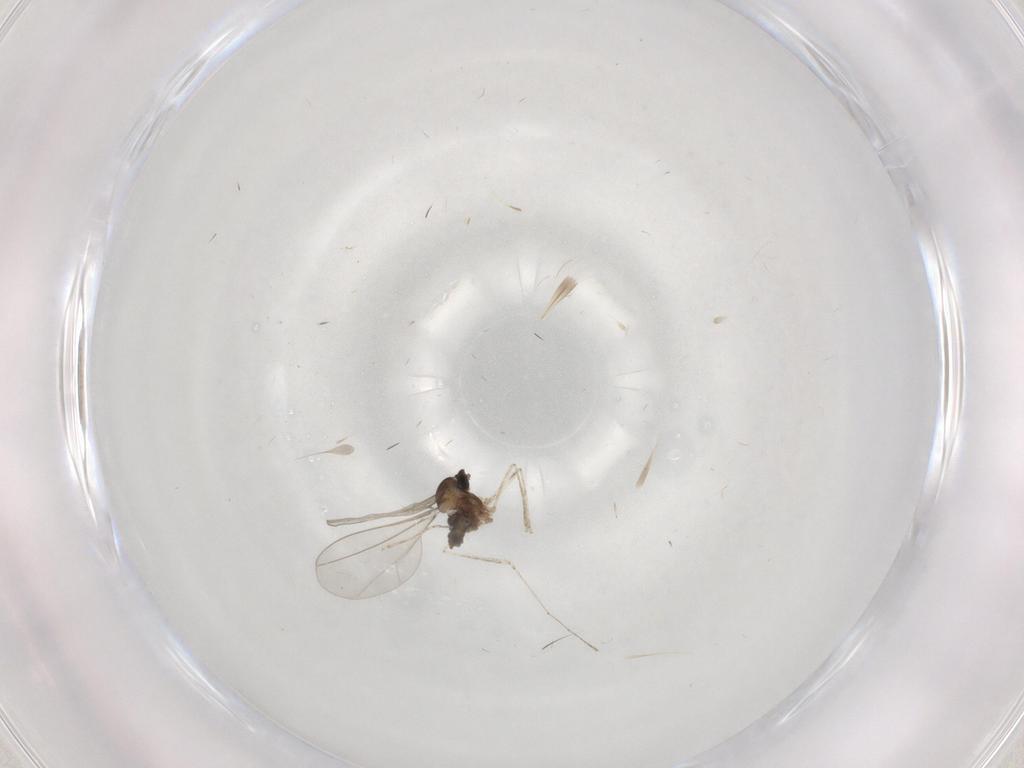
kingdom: Animalia
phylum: Arthropoda
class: Insecta
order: Diptera
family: Cecidomyiidae
